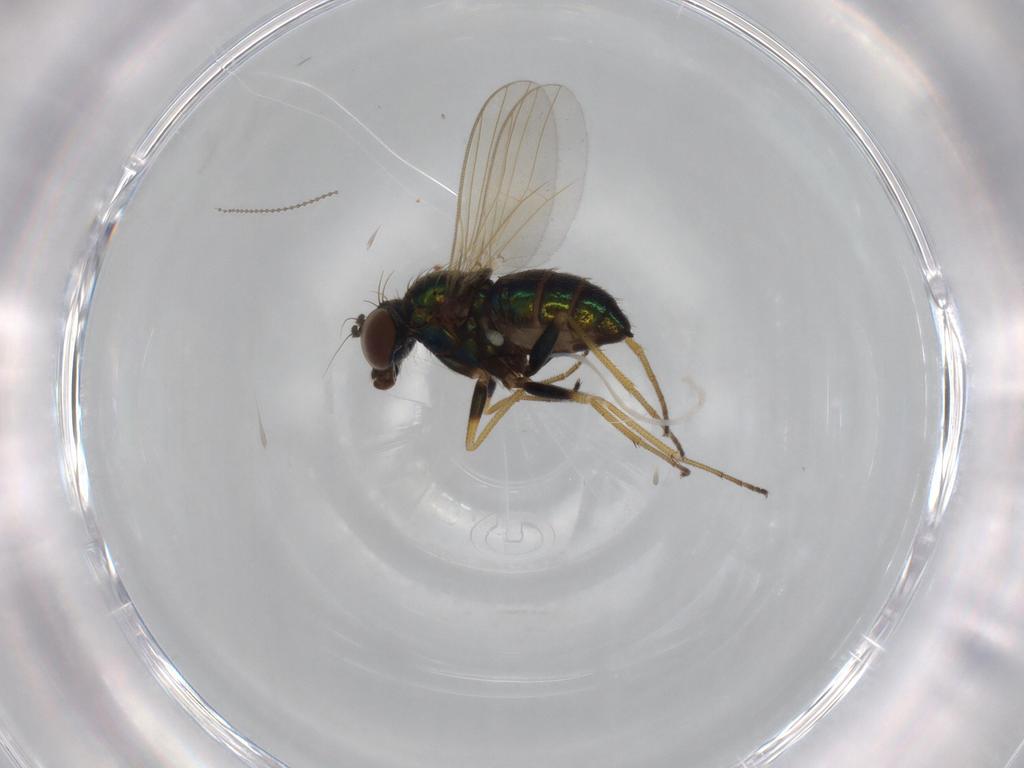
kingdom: Animalia
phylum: Arthropoda
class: Insecta
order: Diptera
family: Dolichopodidae
